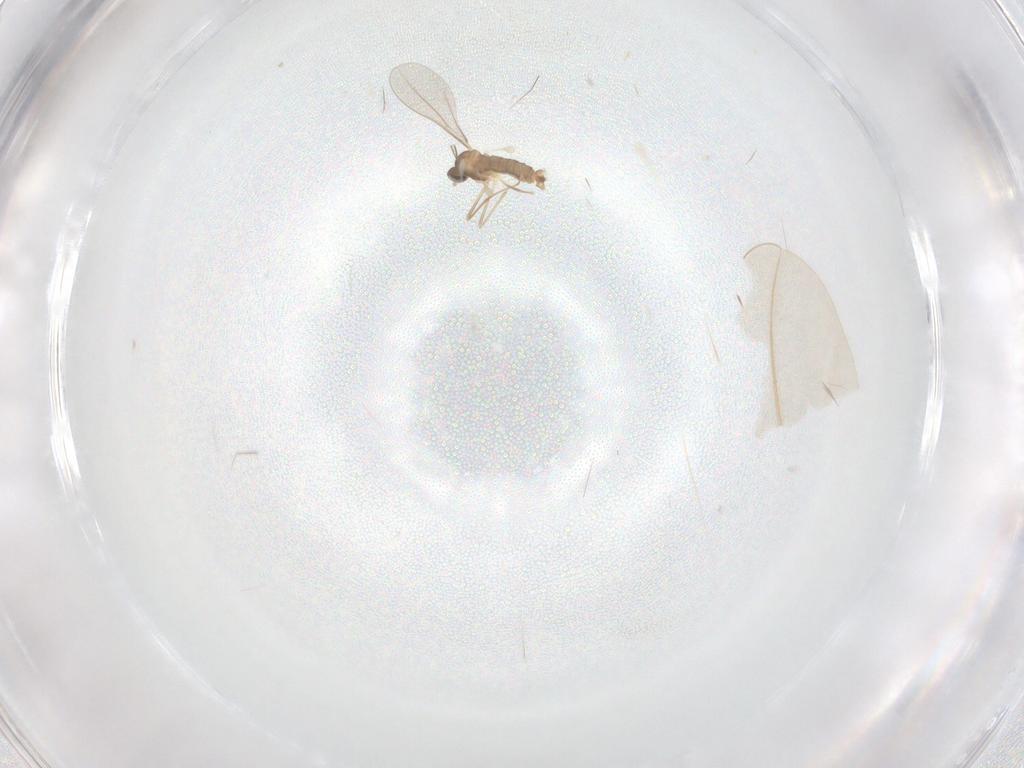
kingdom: Animalia
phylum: Arthropoda
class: Insecta
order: Diptera
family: Cecidomyiidae
